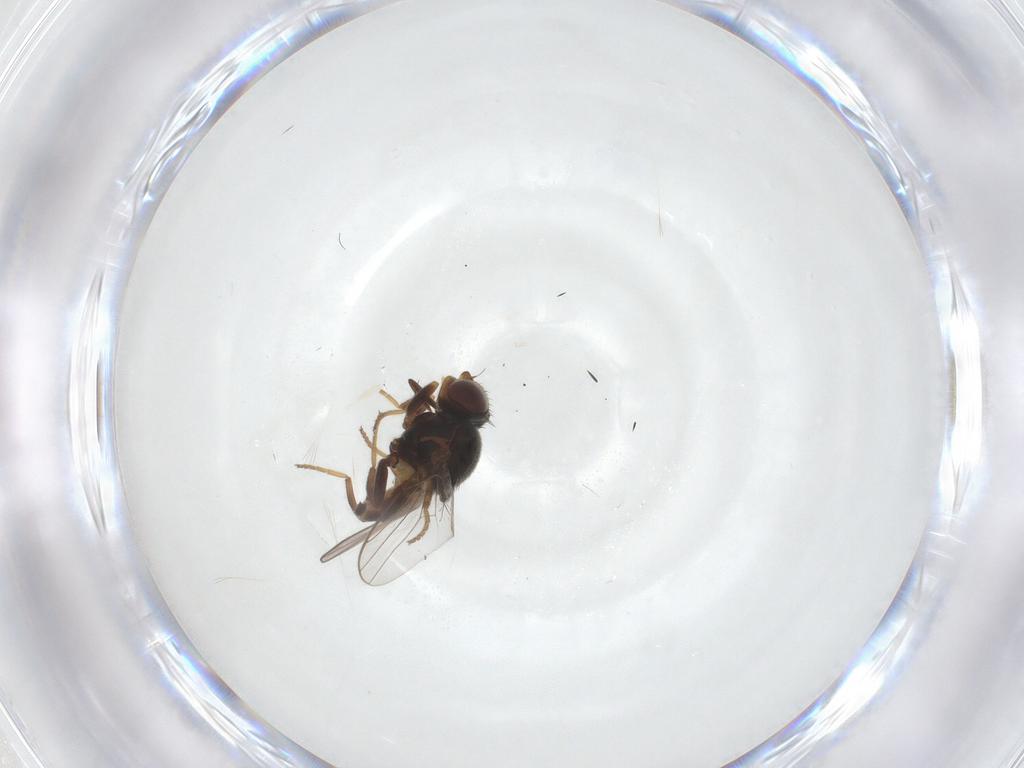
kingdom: Animalia
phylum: Arthropoda
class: Insecta
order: Diptera
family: Chloropidae
